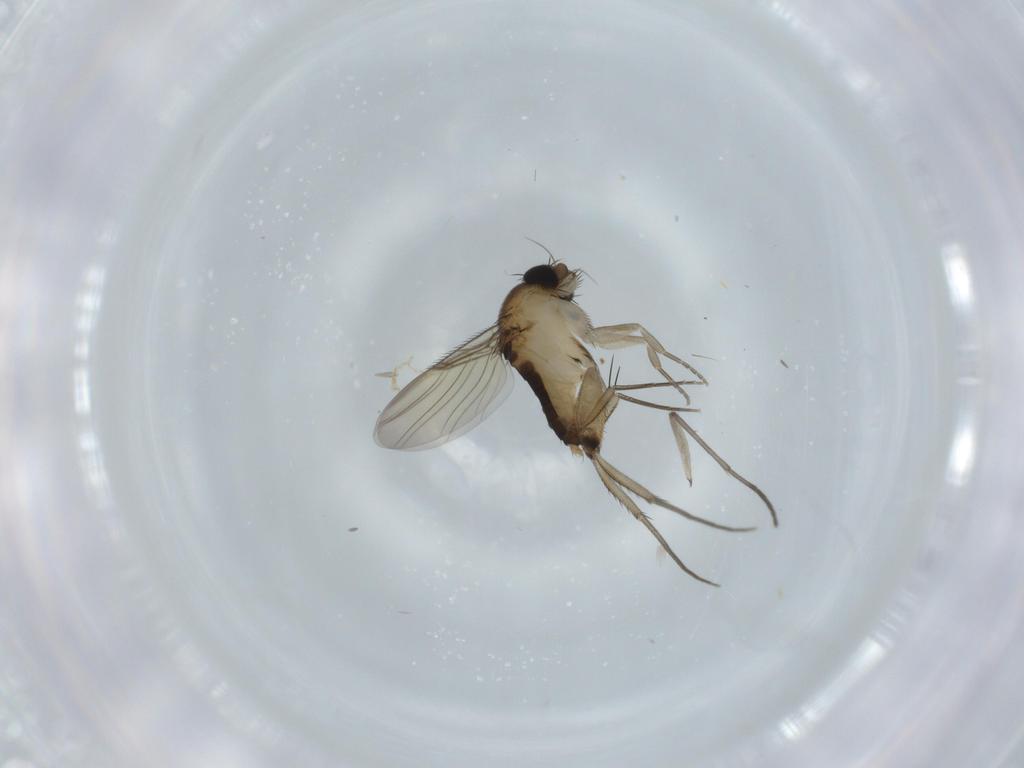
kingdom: Animalia
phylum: Arthropoda
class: Insecta
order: Diptera
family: Phoridae
